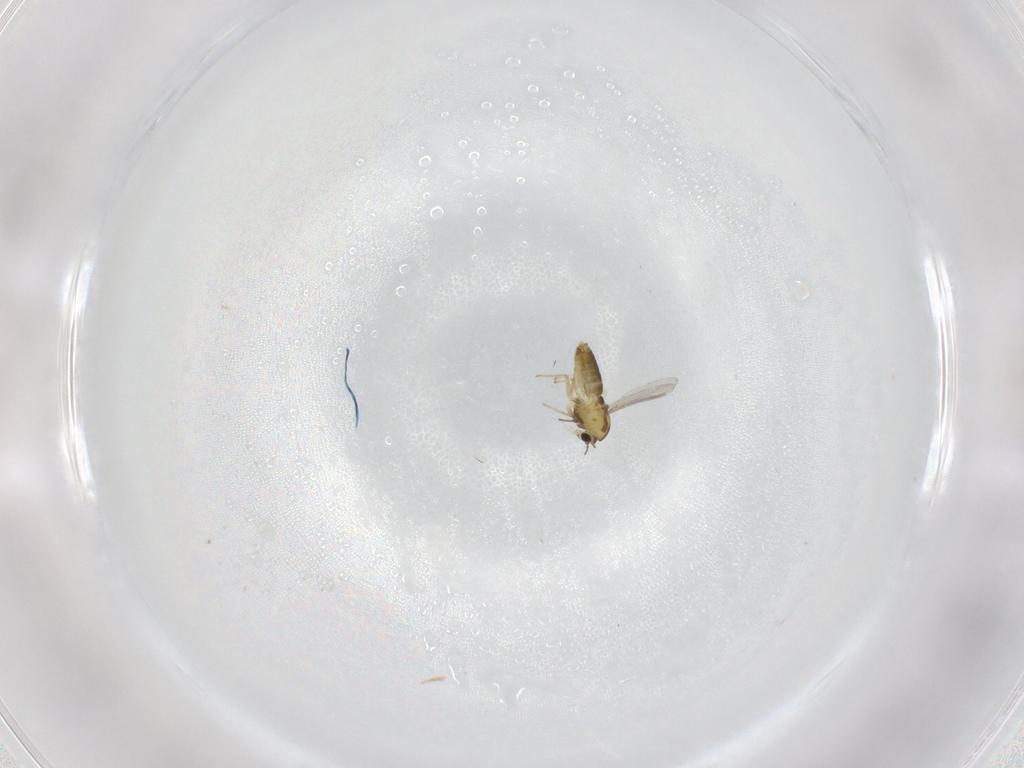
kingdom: Animalia
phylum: Arthropoda
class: Insecta
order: Diptera
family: Chironomidae
